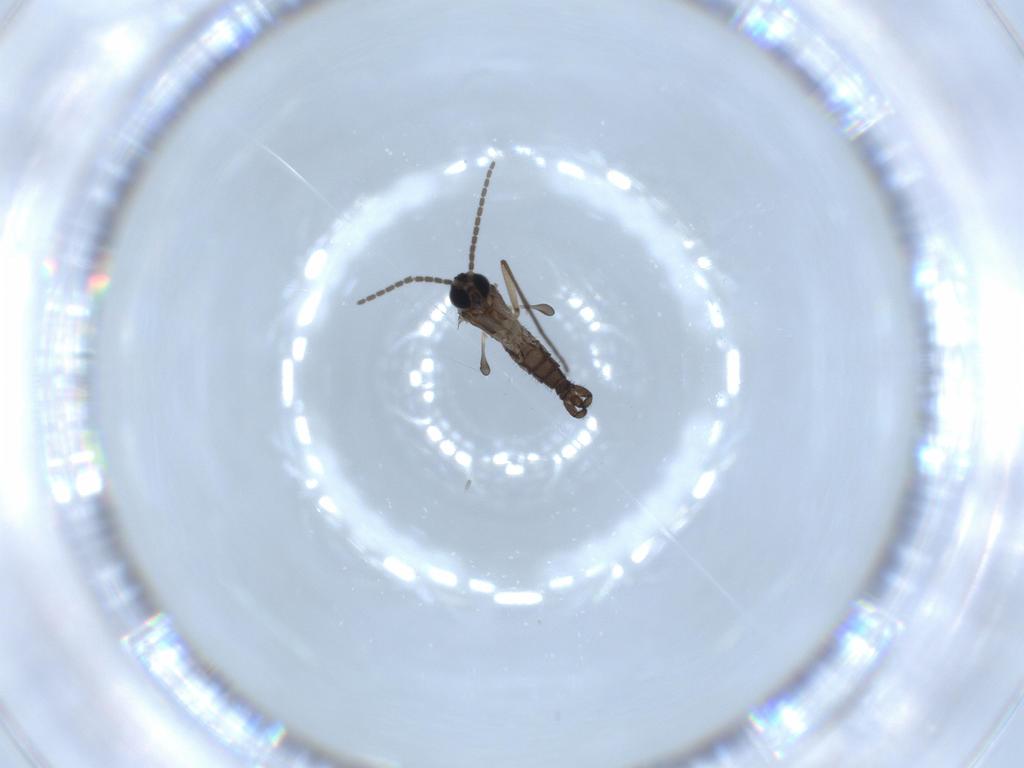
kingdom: Animalia
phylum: Arthropoda
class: Insecta
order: Diptera
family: Sciaridae
